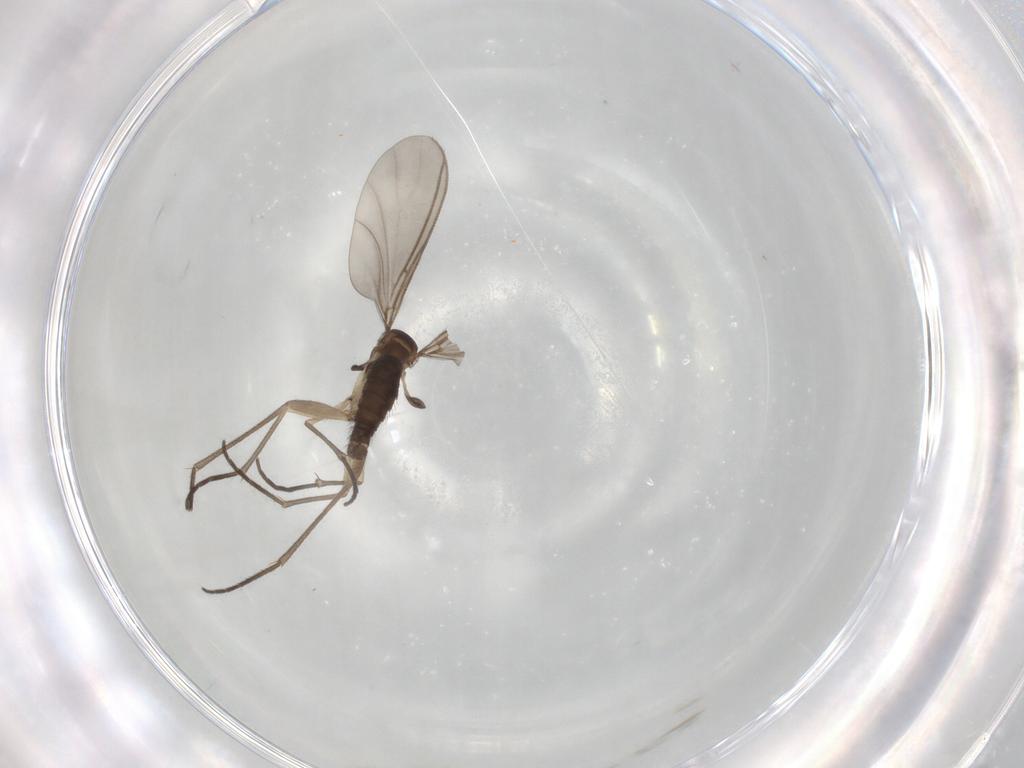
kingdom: Animalia
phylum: Arthropoda
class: Insecta
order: Diptera
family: Sciaridae
